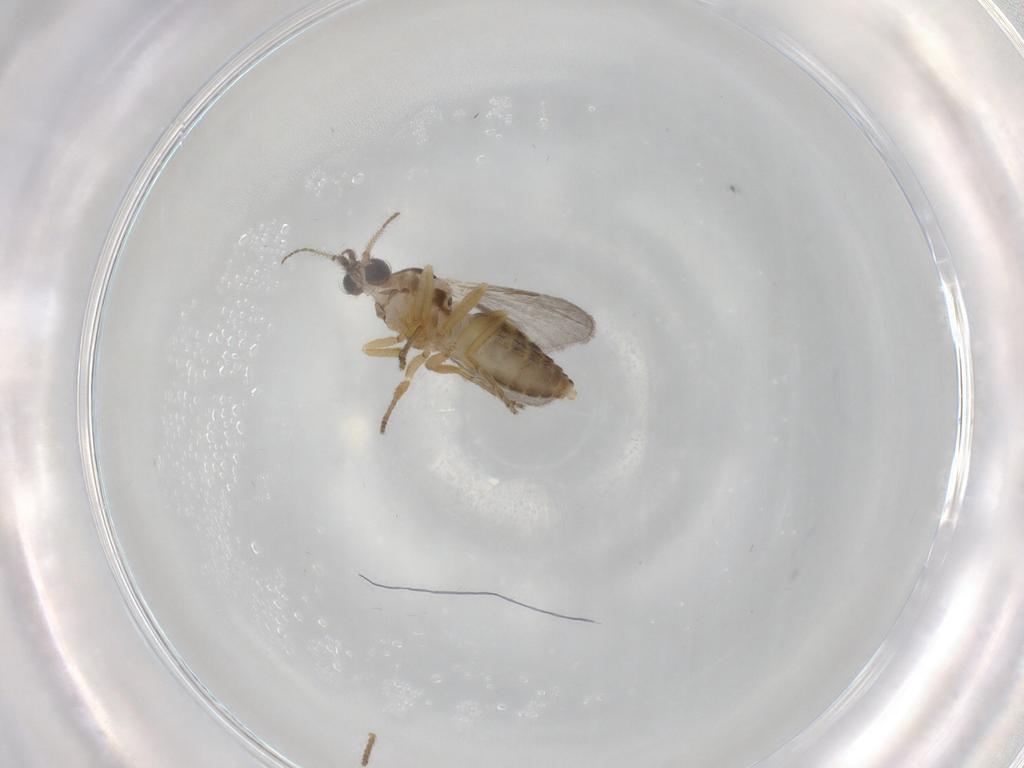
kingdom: Animalia
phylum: Arthropoda
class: Insecta
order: Diptera
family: Ceratopogonidae
